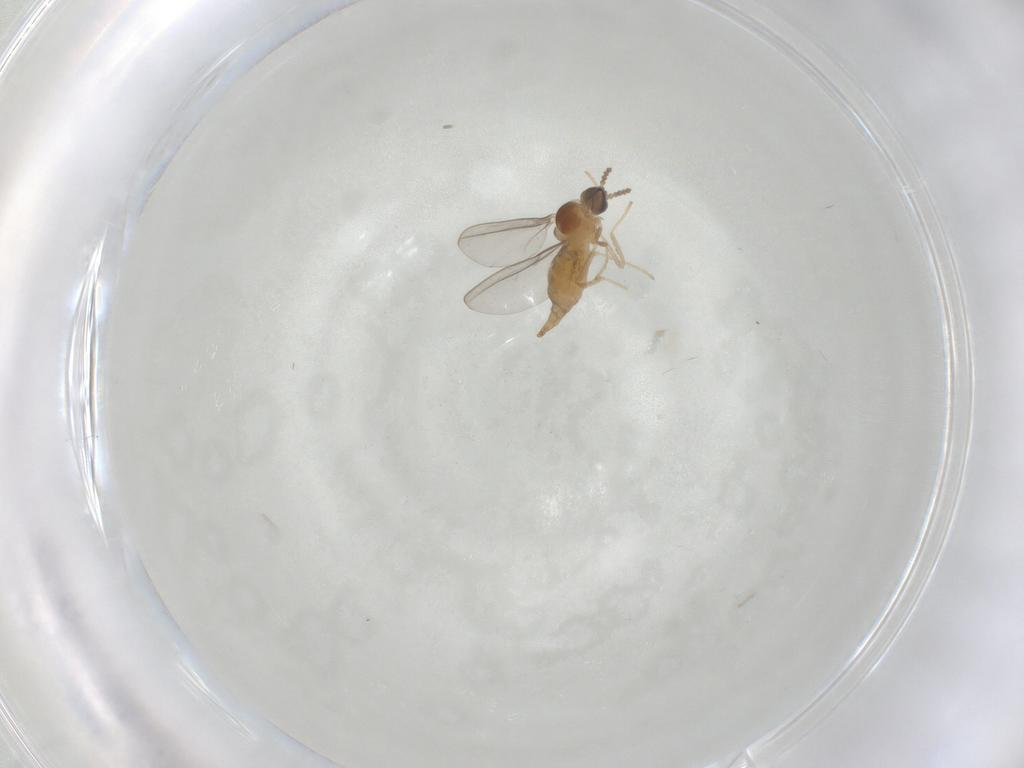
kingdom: Animalia
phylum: Arthropoda
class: Insecta
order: Diptera
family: Cecidomyiidae
